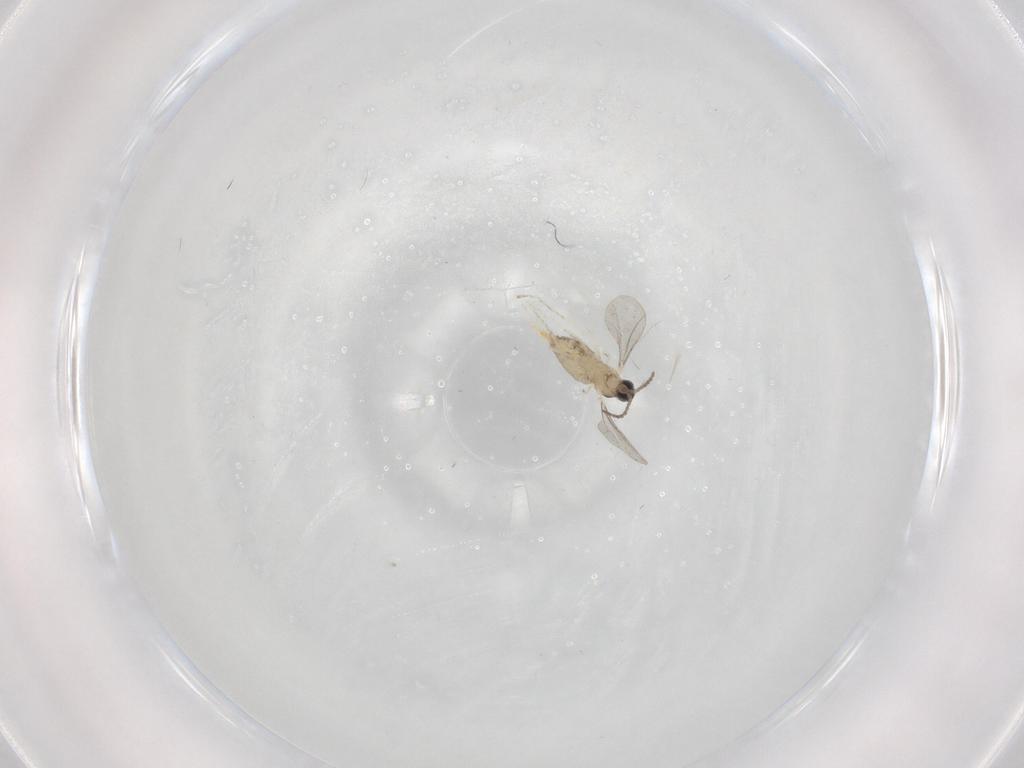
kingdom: Animalia
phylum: Arthropoda
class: Insecta
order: Diptera
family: Cecidomyiidae
